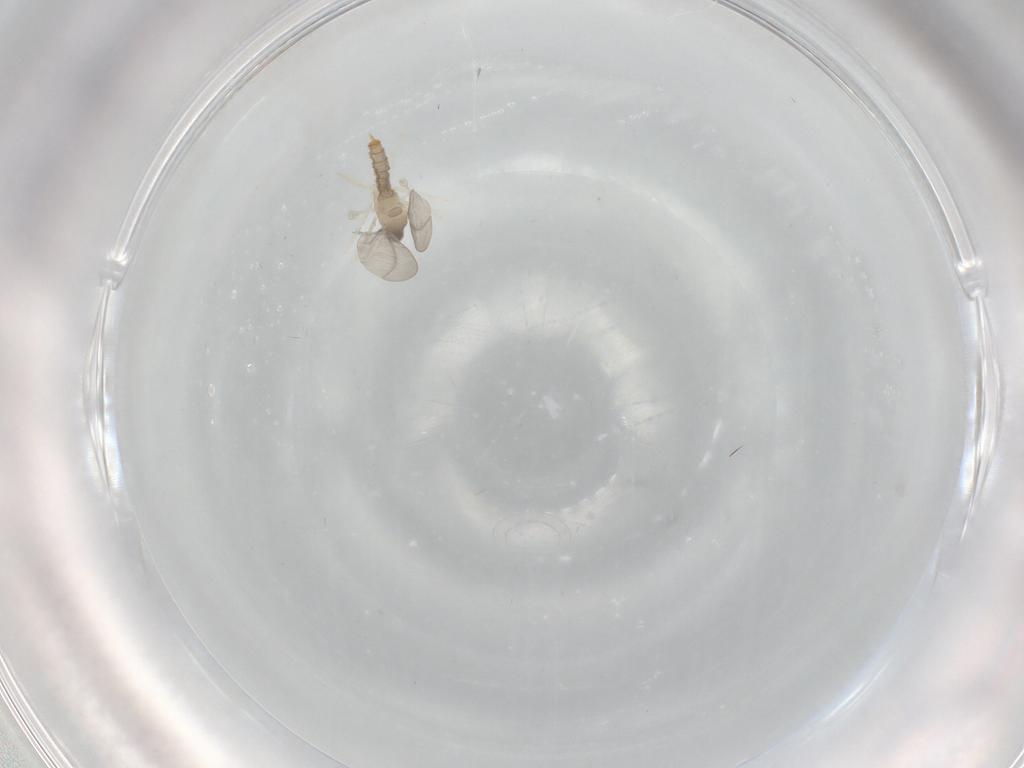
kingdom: Animalia
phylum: Arthropoda
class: Insecta
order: Diptera
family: Cecidomyiidae
